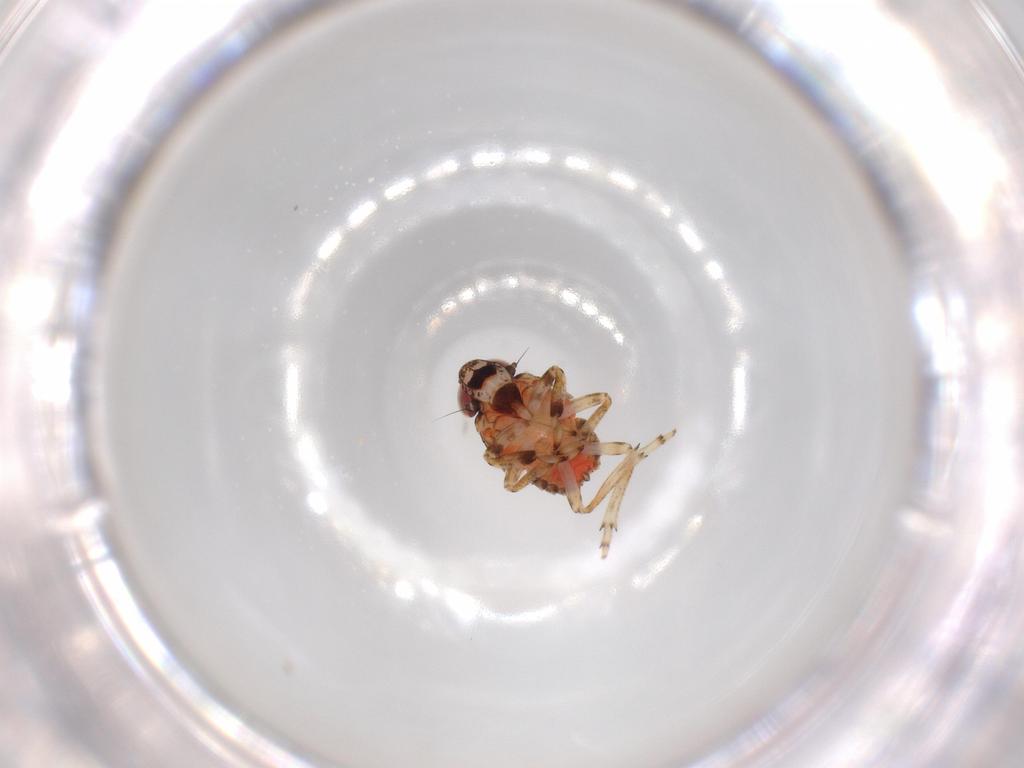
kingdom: Animalia
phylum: Arthropoda
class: Insecta
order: Hemiptera
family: Issidae
